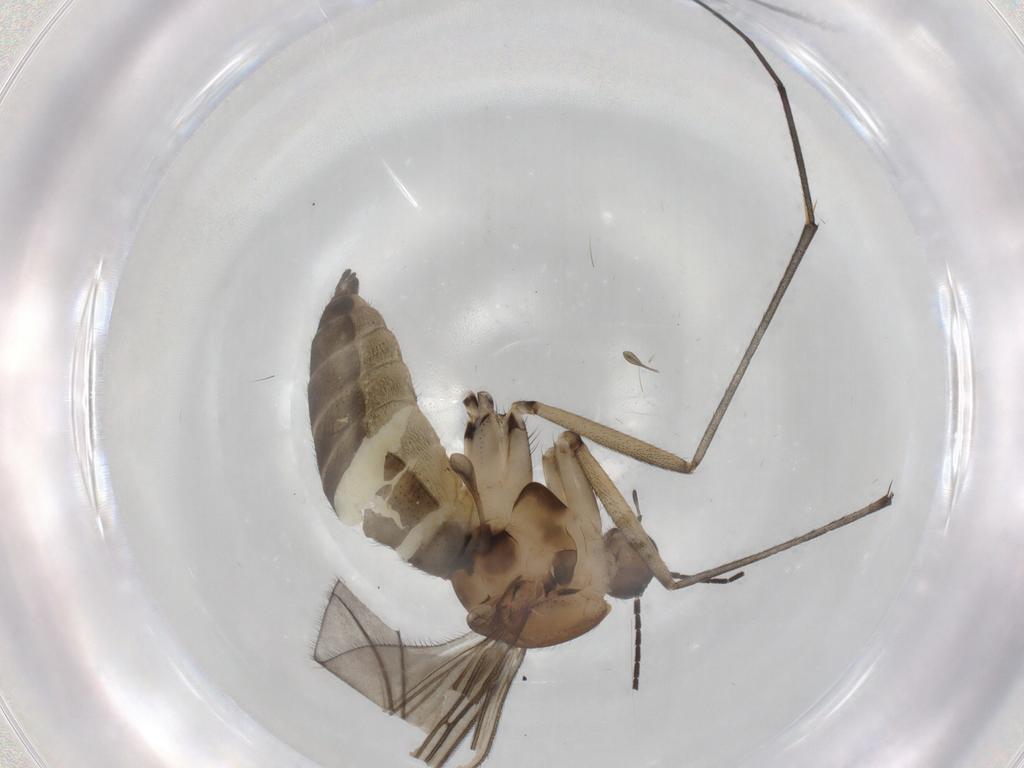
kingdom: Animalia
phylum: Arthropoda
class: Insecta
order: Diptera
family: Sciaridae
